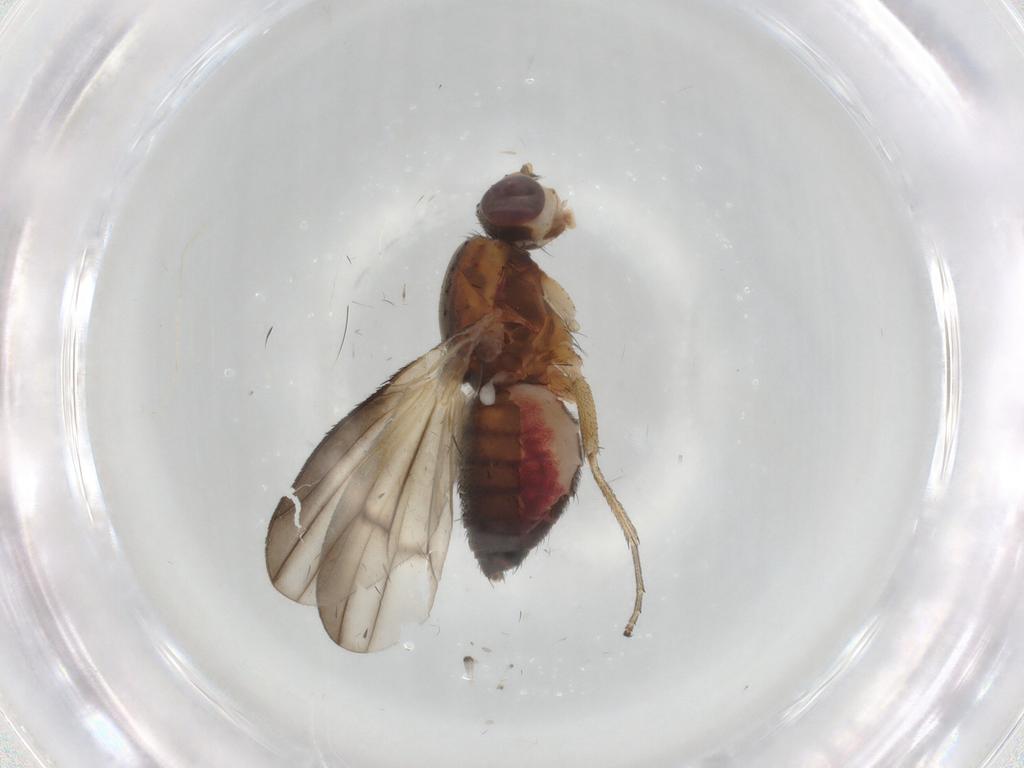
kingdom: Animalia
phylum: Arthropoda
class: Insecta
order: Diptera
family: Heleomyzidae
